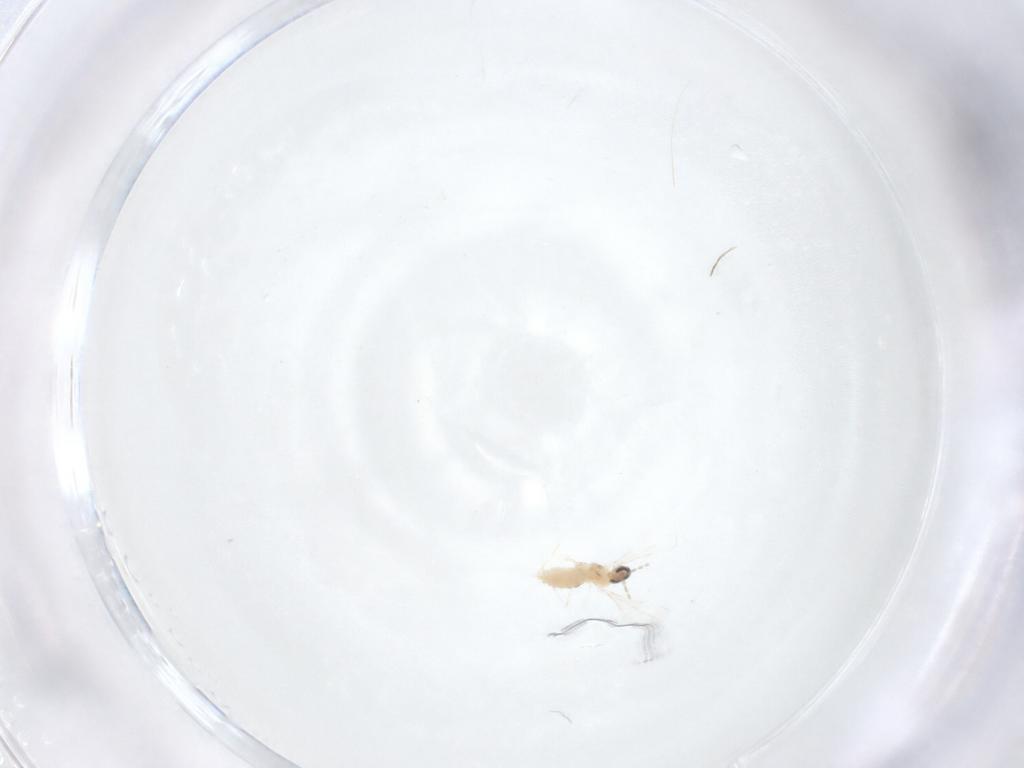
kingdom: Animalia
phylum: Arthropoda
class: Insecta
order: Diptera
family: Cecidomyiidae
